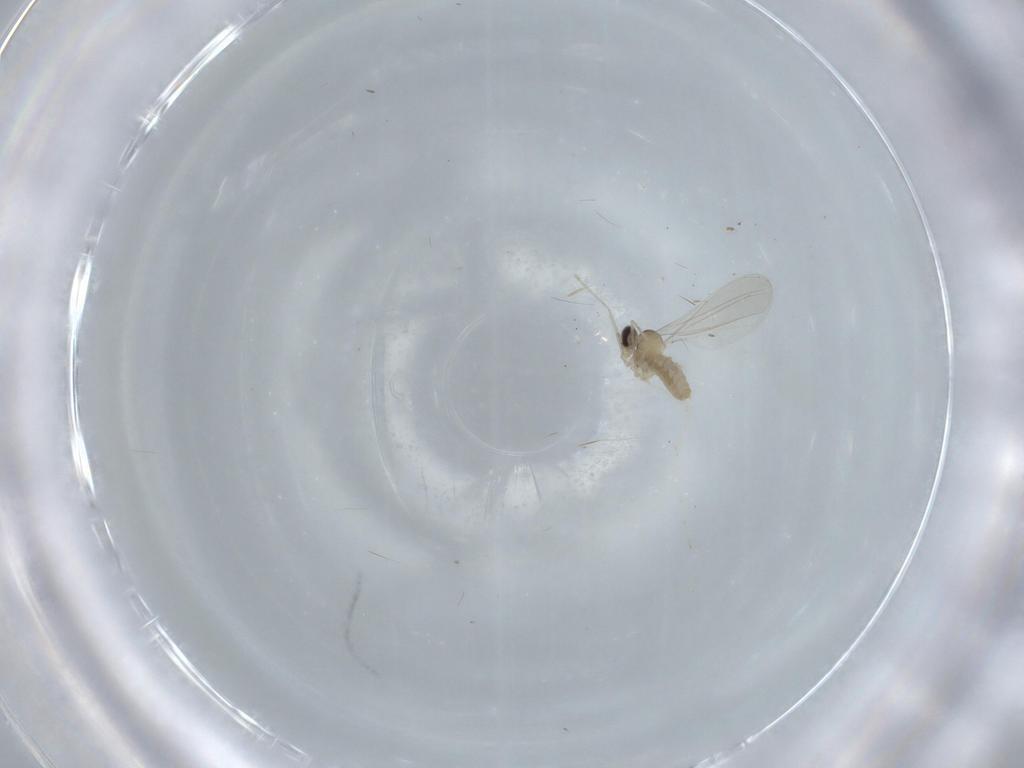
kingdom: Animalia
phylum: Arthropoda
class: Insecta
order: Diptera
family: Cecidomyiidae
